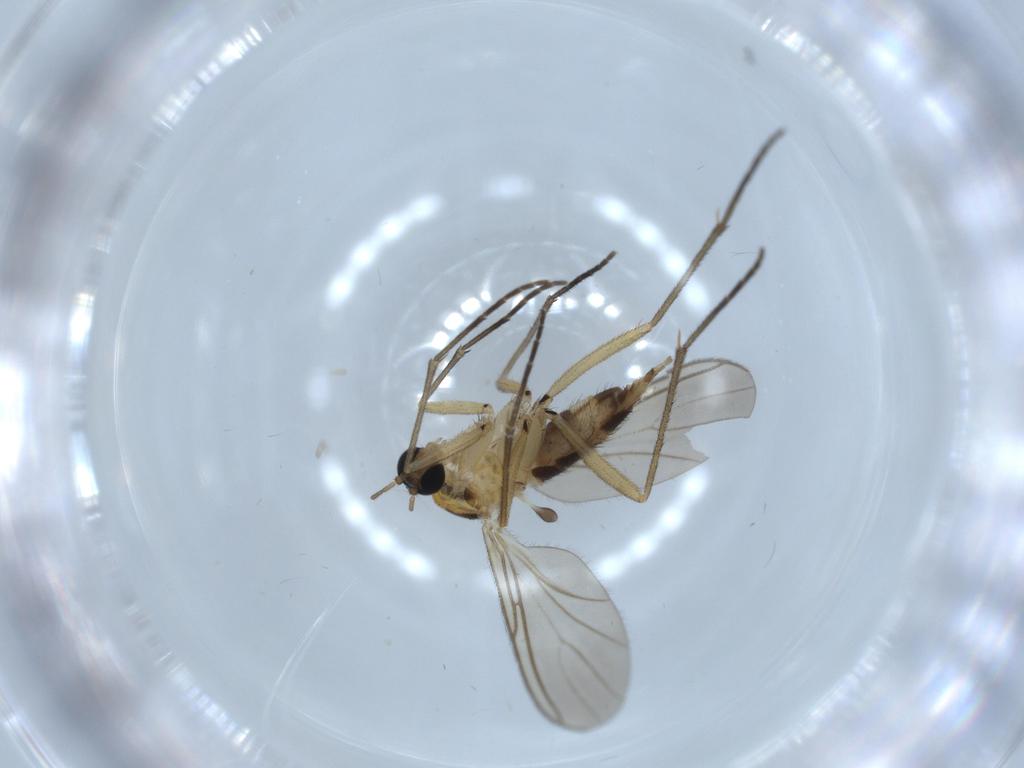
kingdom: Animalia
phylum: Arthropoda
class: Insecta
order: Diptera
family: Sciaridae
